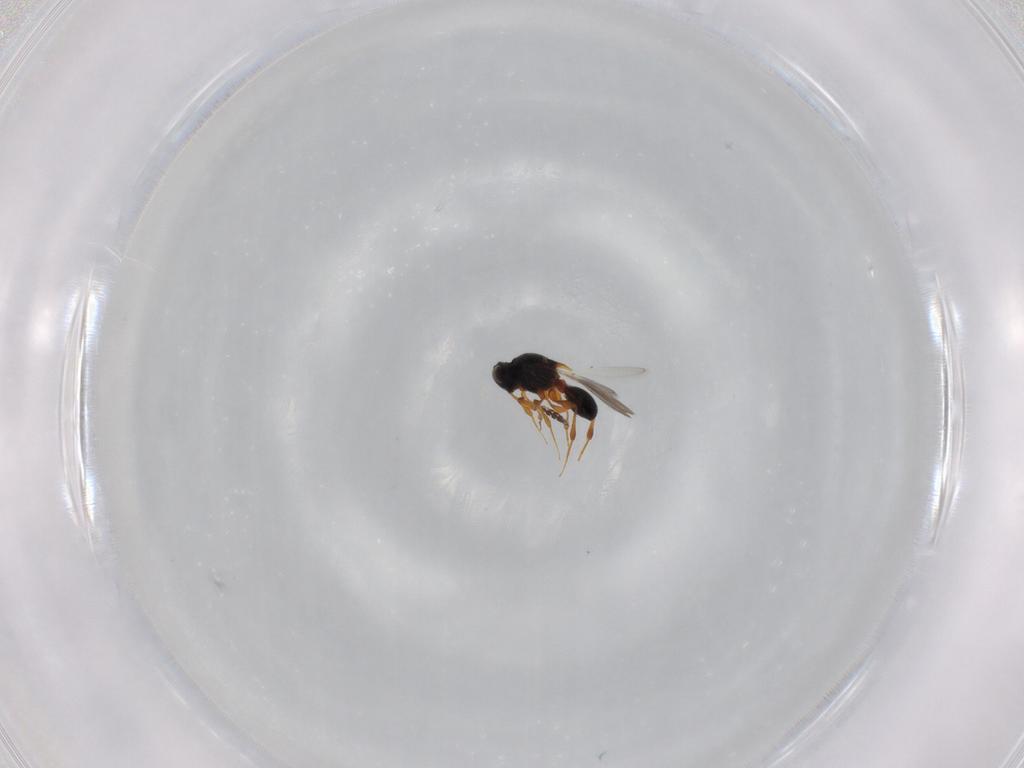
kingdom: Animalia
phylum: Arthropoda
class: Insecta
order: Hymenoptera
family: Platygastridae
